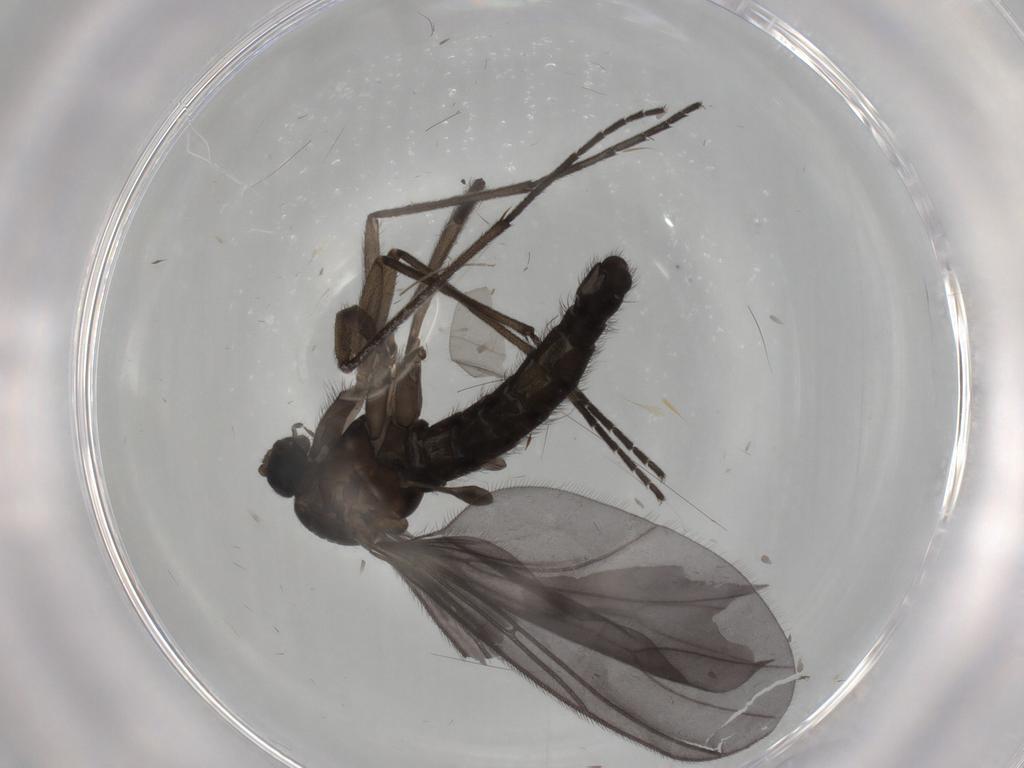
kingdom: Animalia
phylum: Arthropoda
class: Insecta
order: Diptera
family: Cecidomyiidae
